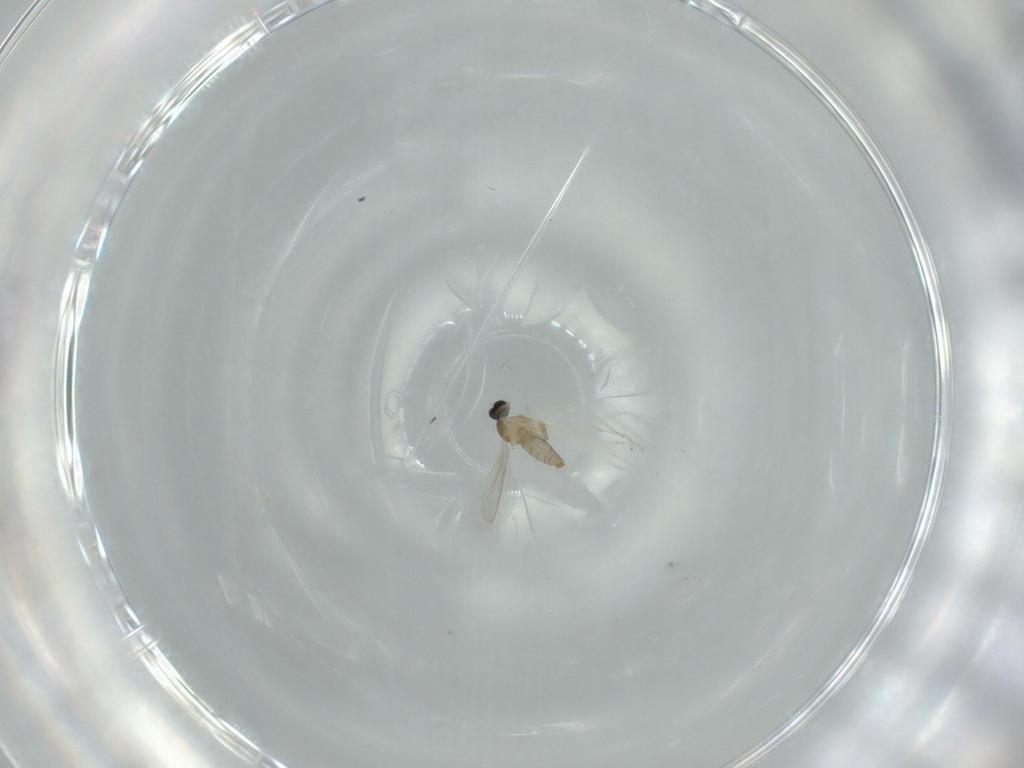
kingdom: Animalia
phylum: Arthropoda
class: Insecta
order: Diptera
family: Cecidomyiidae
